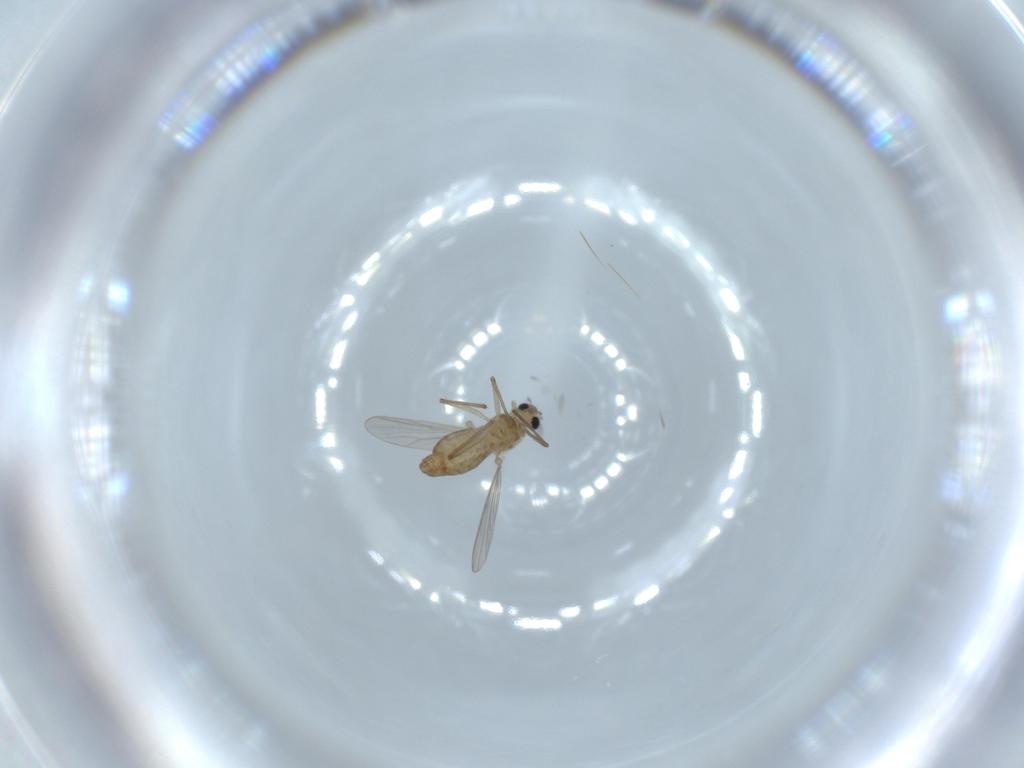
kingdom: Animalia
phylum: Arthropoda
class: Insecta
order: Diptera
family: Chironomidae
